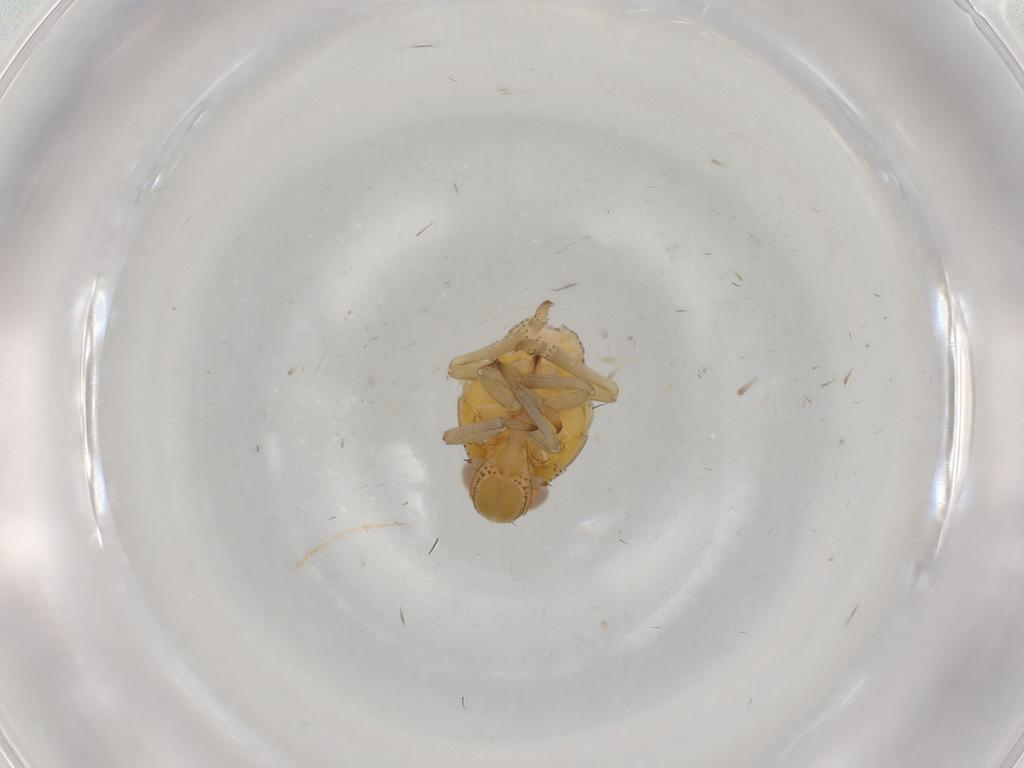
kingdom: Animalia
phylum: Arthropoda
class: Insecta
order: Hemiptera
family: Tropiduchidae
